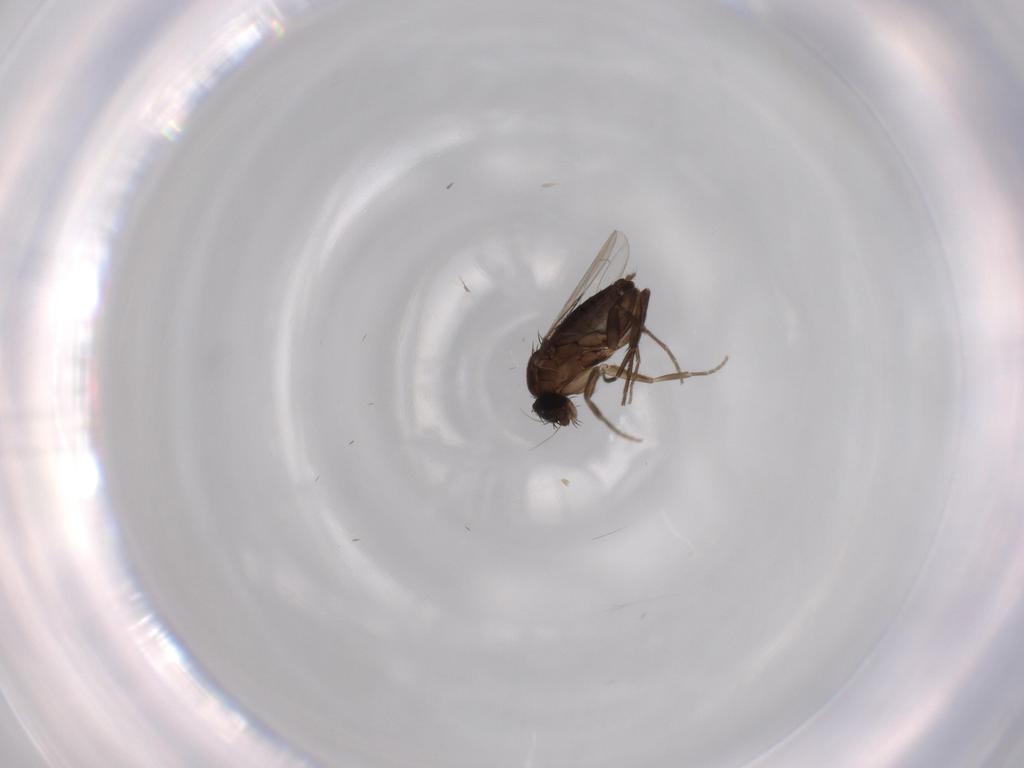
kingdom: Animalia
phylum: Arthropoda
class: Insecta
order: Diptera
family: Phoridae
